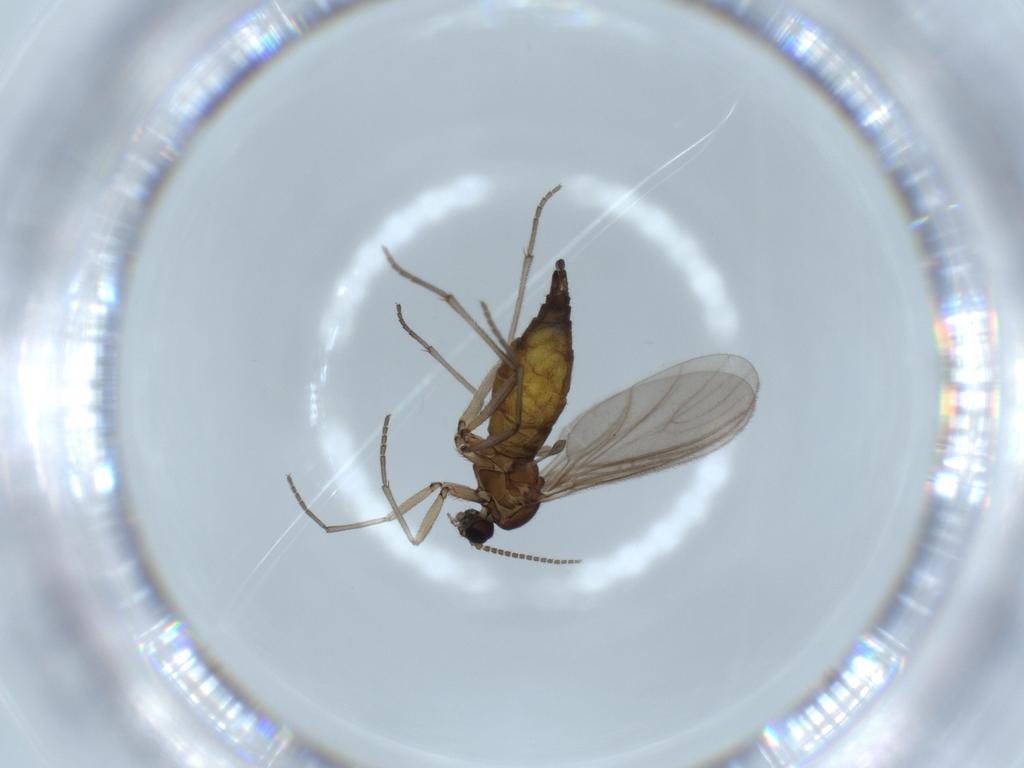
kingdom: Animalia
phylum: Arthropoda
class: Insecta
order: Diptera
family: Sciaridae
